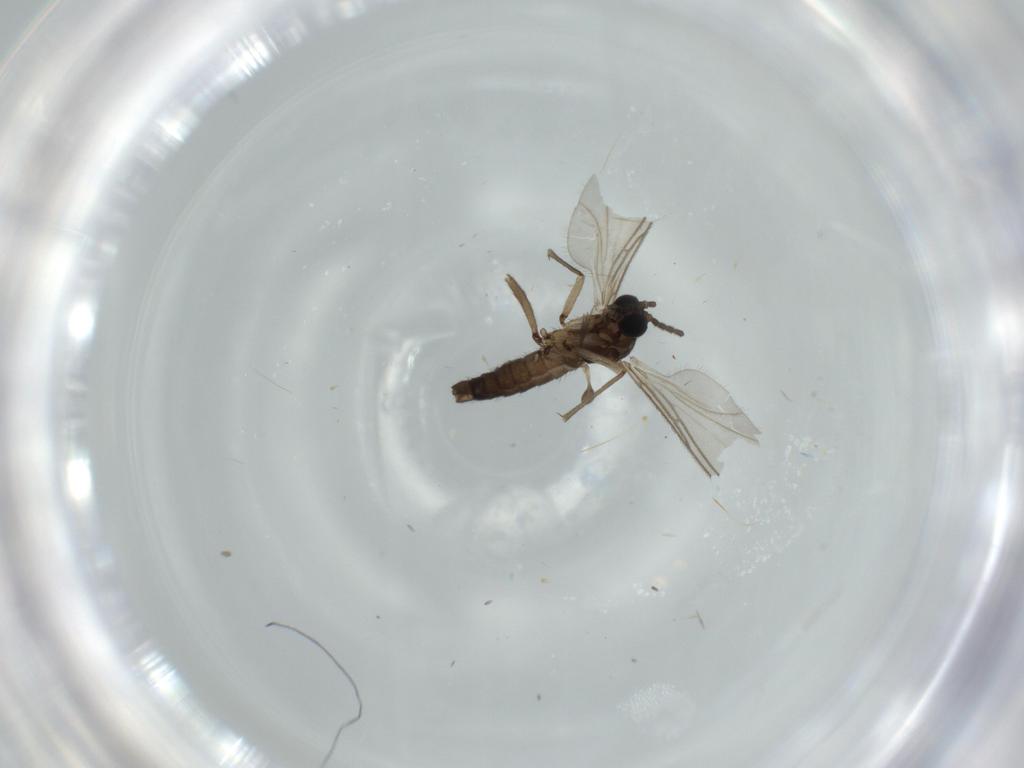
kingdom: Animalia
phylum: Arthropoda
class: Insecta
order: Diptera
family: Sciaridae
